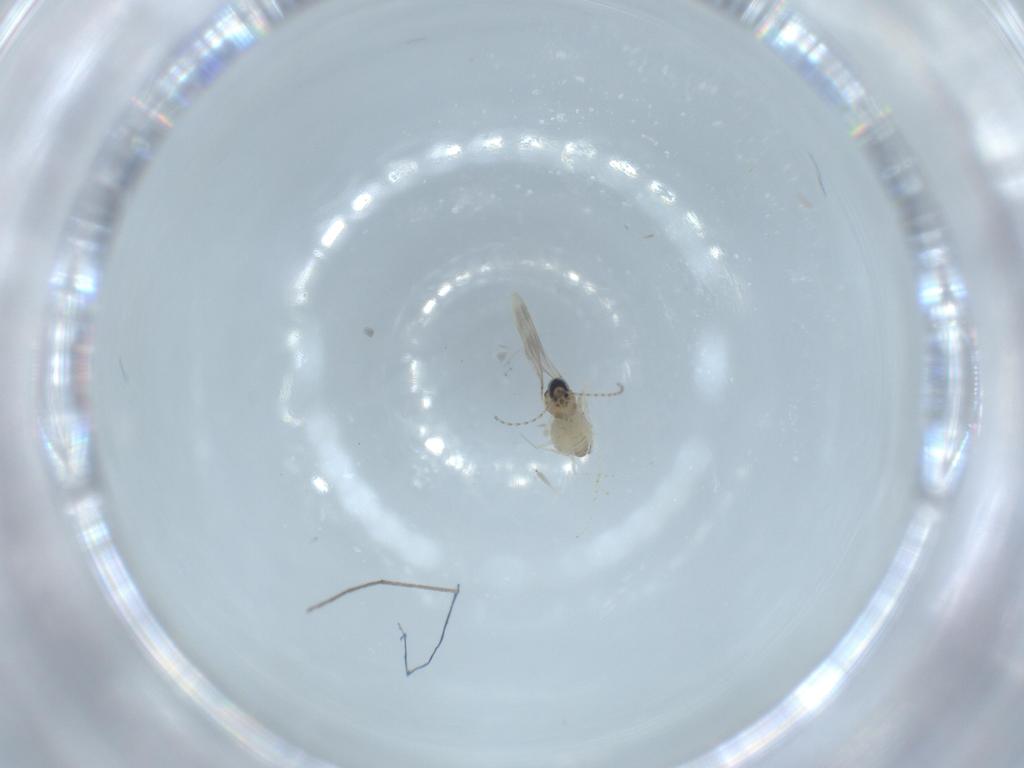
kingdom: Animalia
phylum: Arthropoda
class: Insecta
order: Diptera
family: Cecidomyiidae
